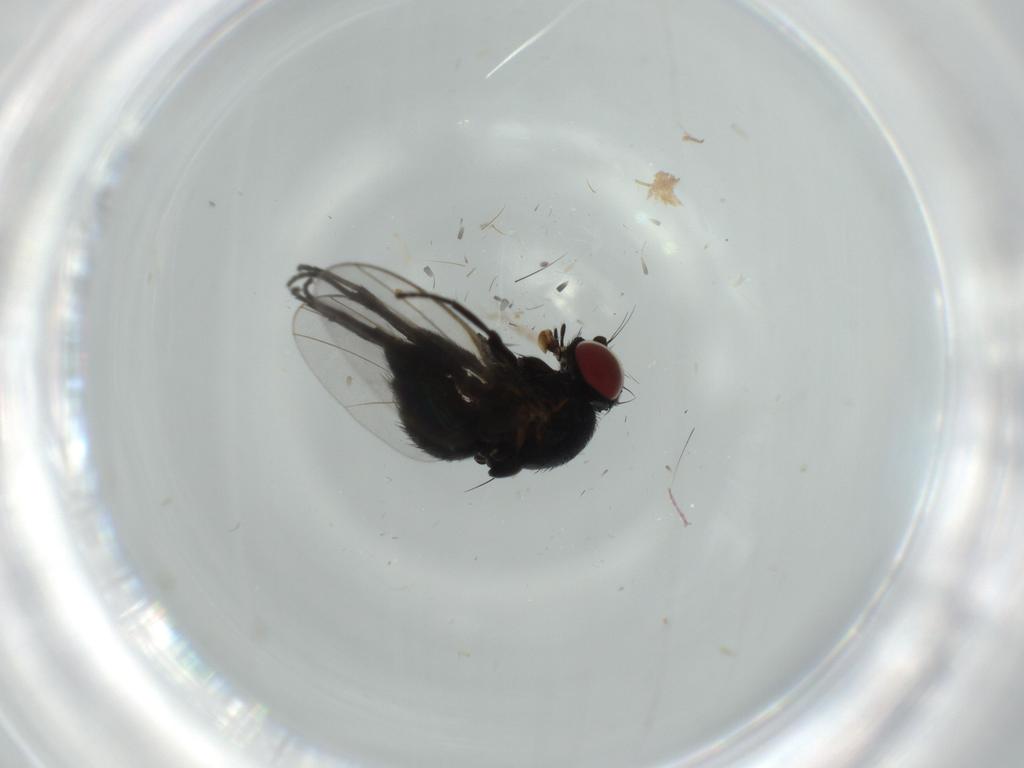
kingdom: Animalia
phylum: Arthropoda
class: Insecta
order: Diptera
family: Agromyzidae
